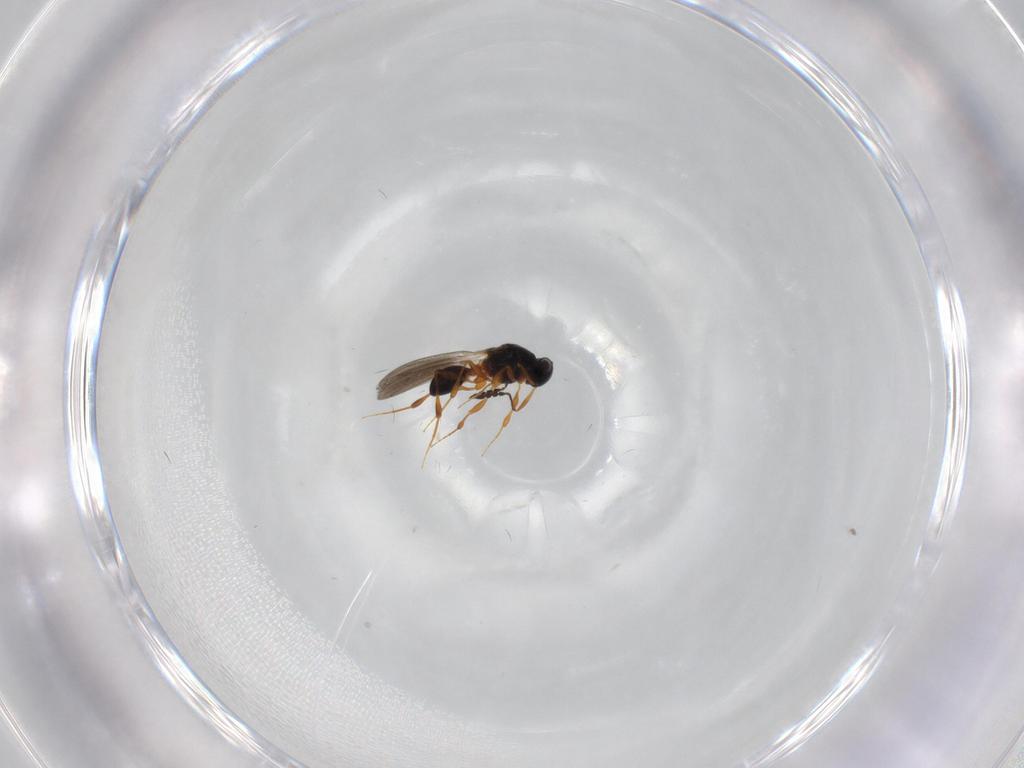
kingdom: Animalia
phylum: Arthropoda
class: Insecta
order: Hymenoptera
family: Platygastridae
